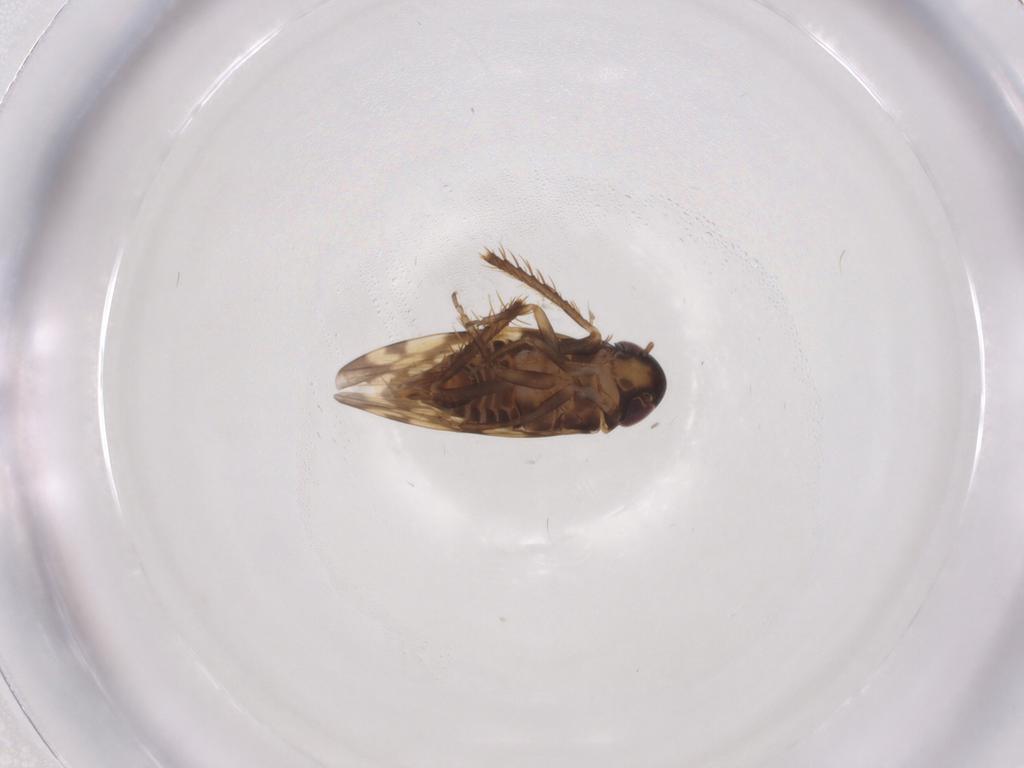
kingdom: Animalia
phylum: Arthropoda
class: Insecta
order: Hemiptera
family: Cicadellidae
